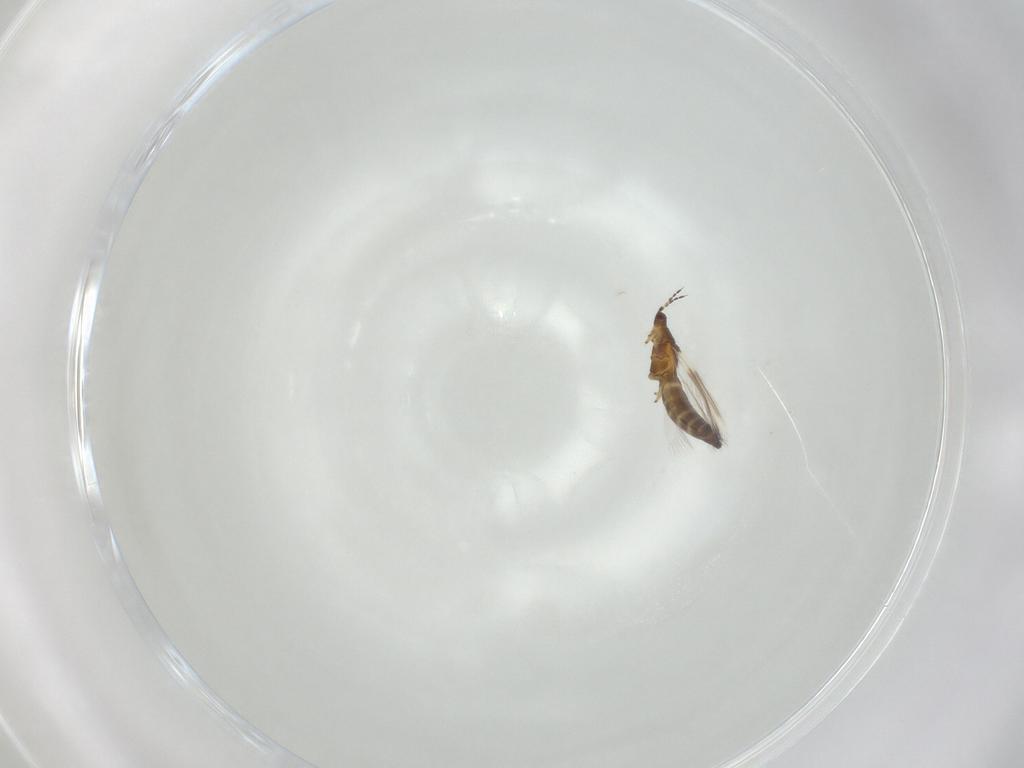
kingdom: Animalia
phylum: Arthropoda
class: Insecta
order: Thysanoptera
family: Thripidae
